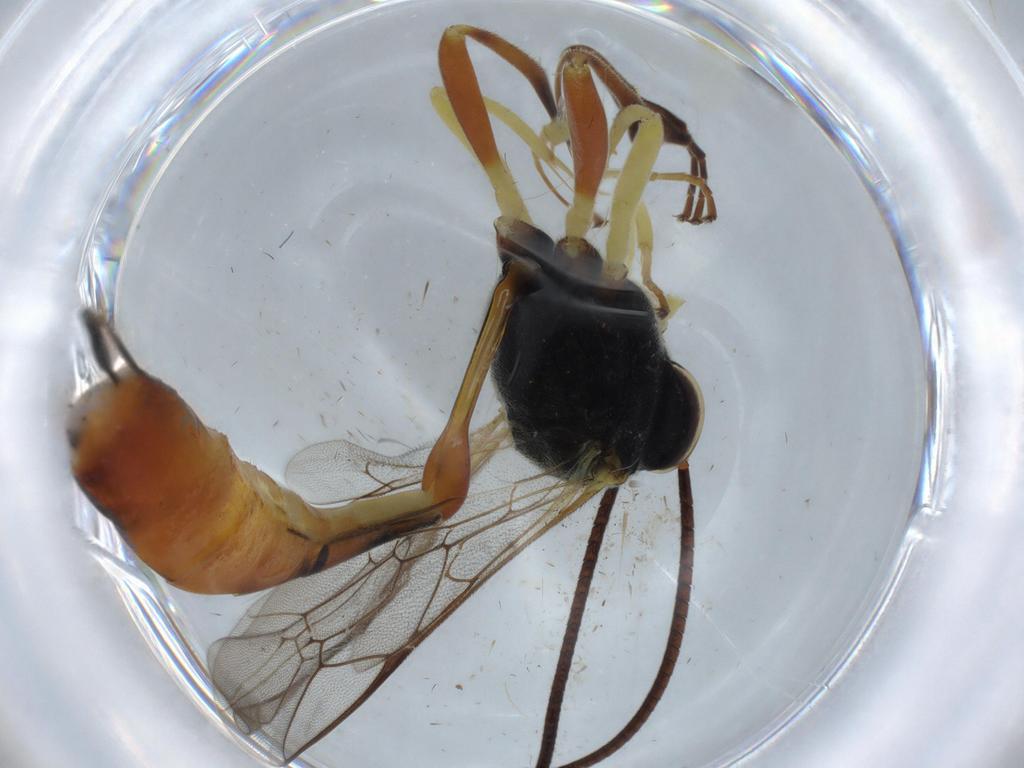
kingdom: Animalia
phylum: Arthropoda
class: Insecta
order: Hymenoptera
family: Ichneumonidae
